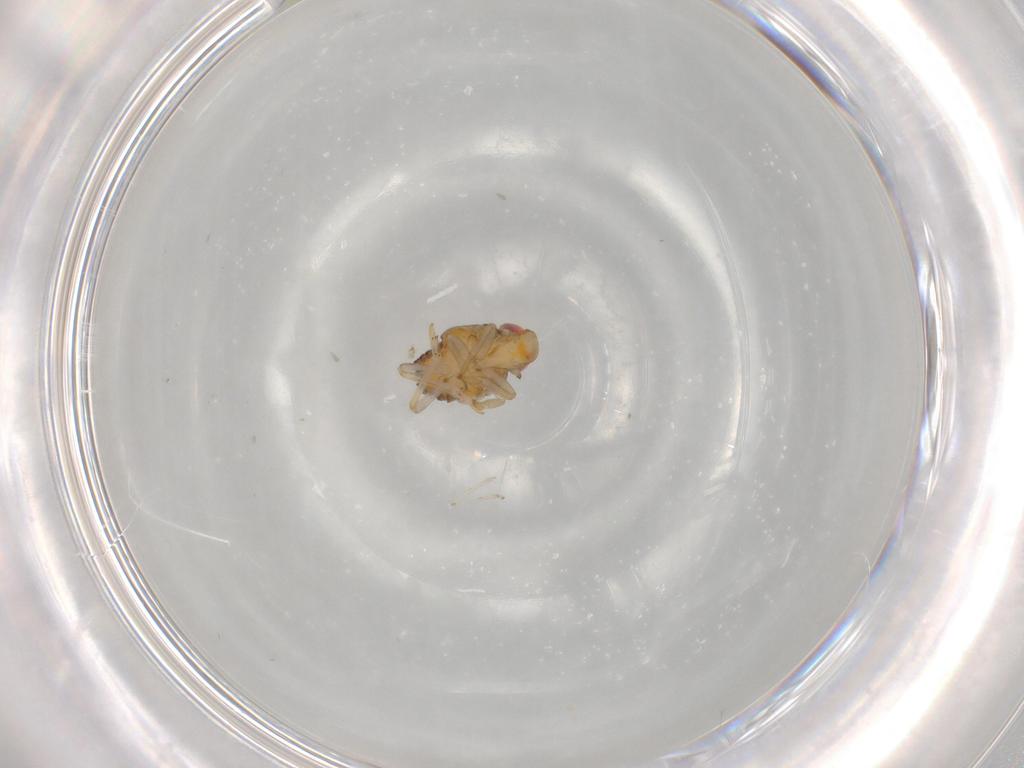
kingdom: Animalia
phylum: Arthropoda
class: Insecta
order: Hemiptera
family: Issidae
